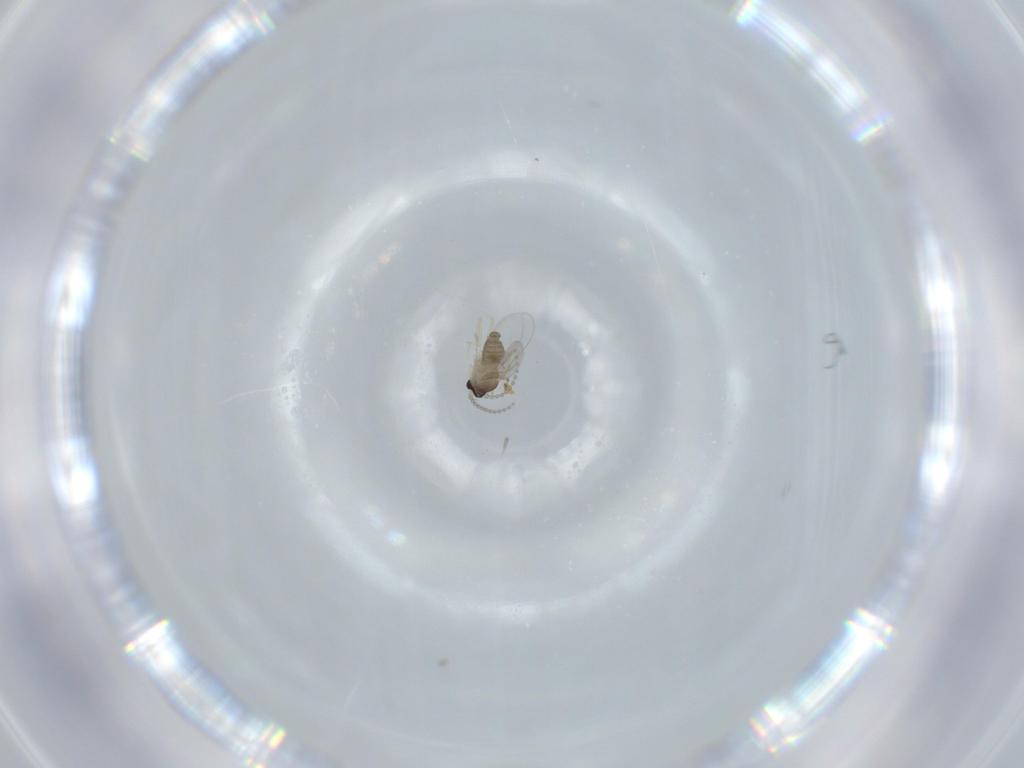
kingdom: Animalia
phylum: Arthropoda
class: Insecta
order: Diptera
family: Cecidomyiidae
